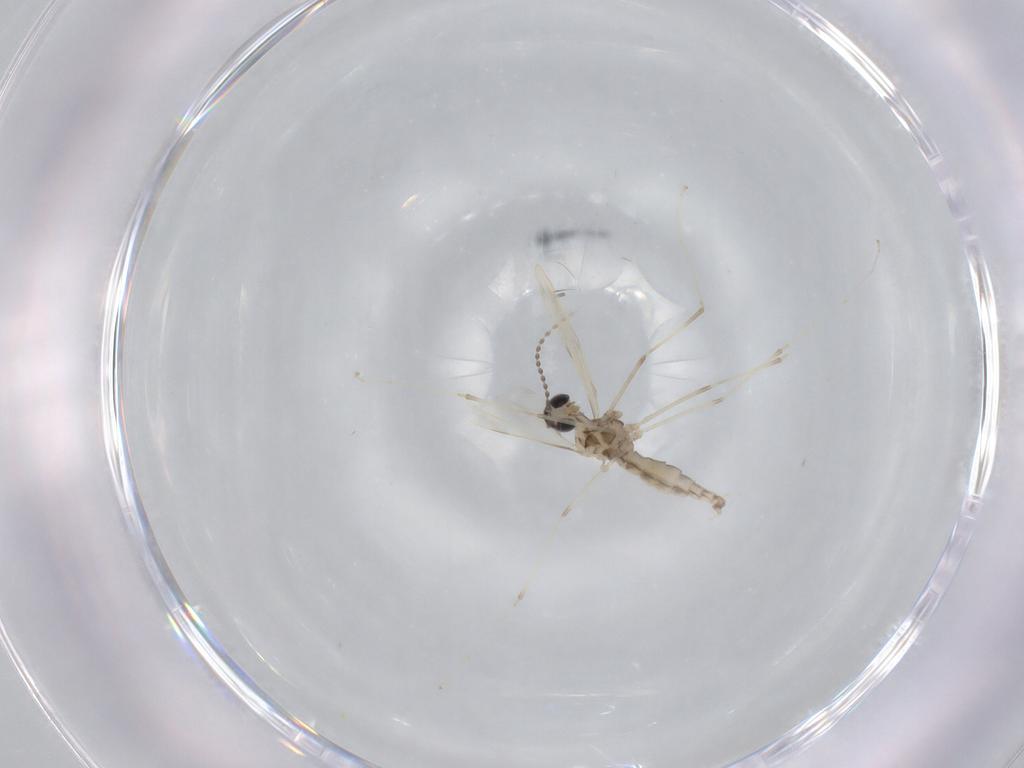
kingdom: Animalia
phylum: Arthropoda
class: Insecta
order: Diptera
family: Cecidomyiidae
